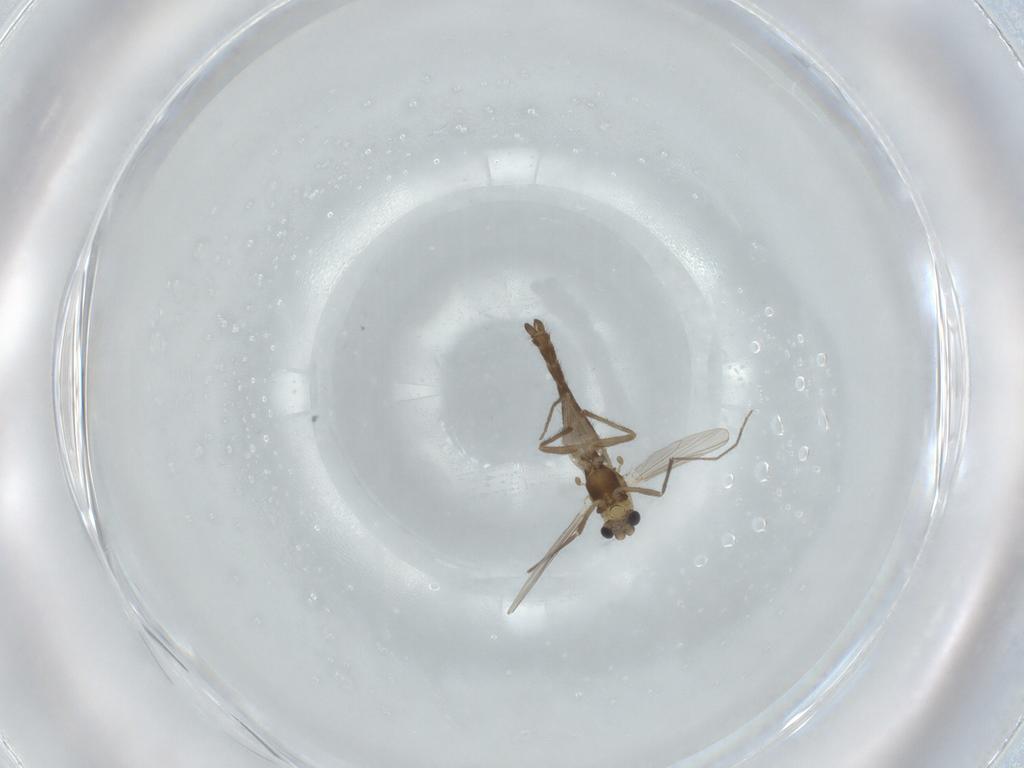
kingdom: Animalia
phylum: Arthropoda
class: Insecta
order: Diptera
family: Chironomidae
